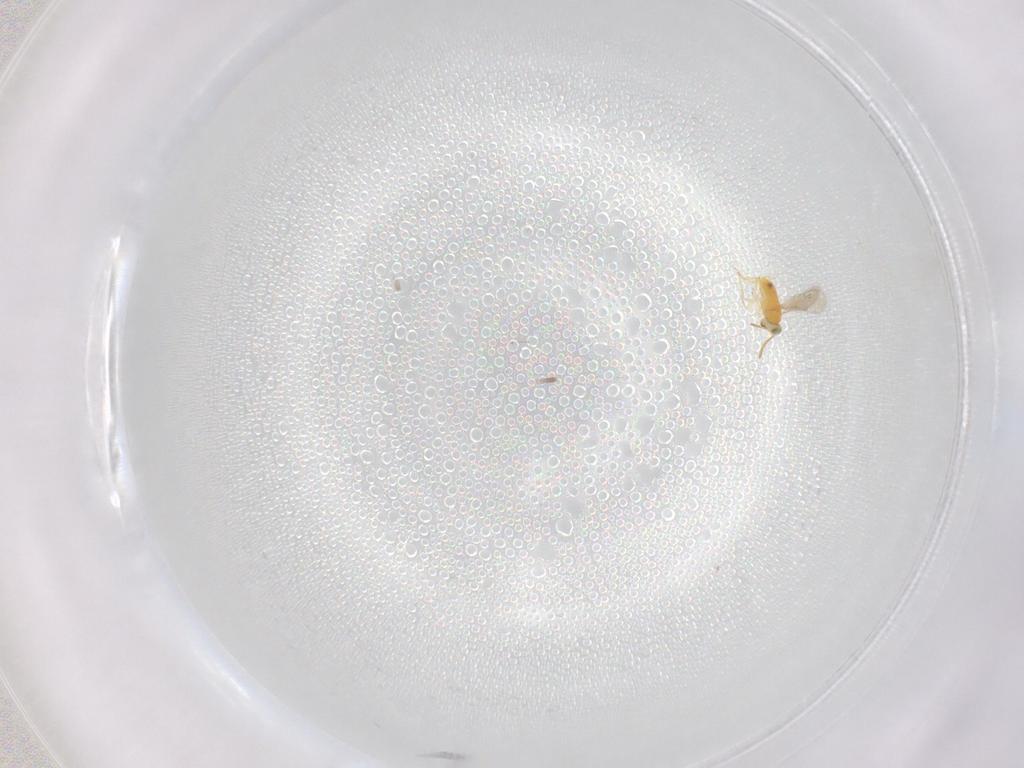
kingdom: Animalia
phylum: Arthropoda
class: Insecta
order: Hymenoptera
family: Aphelinidae
